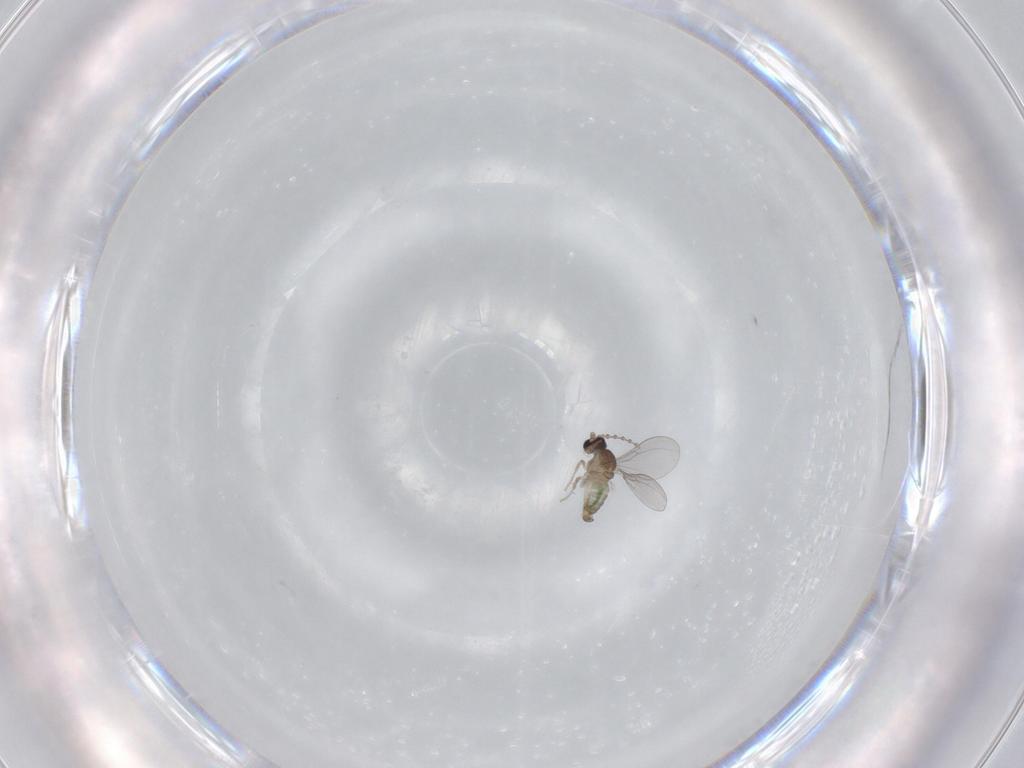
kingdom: Animalia
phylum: Arthropoda
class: Insecta
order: Diptera
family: Cecidomyiidae
